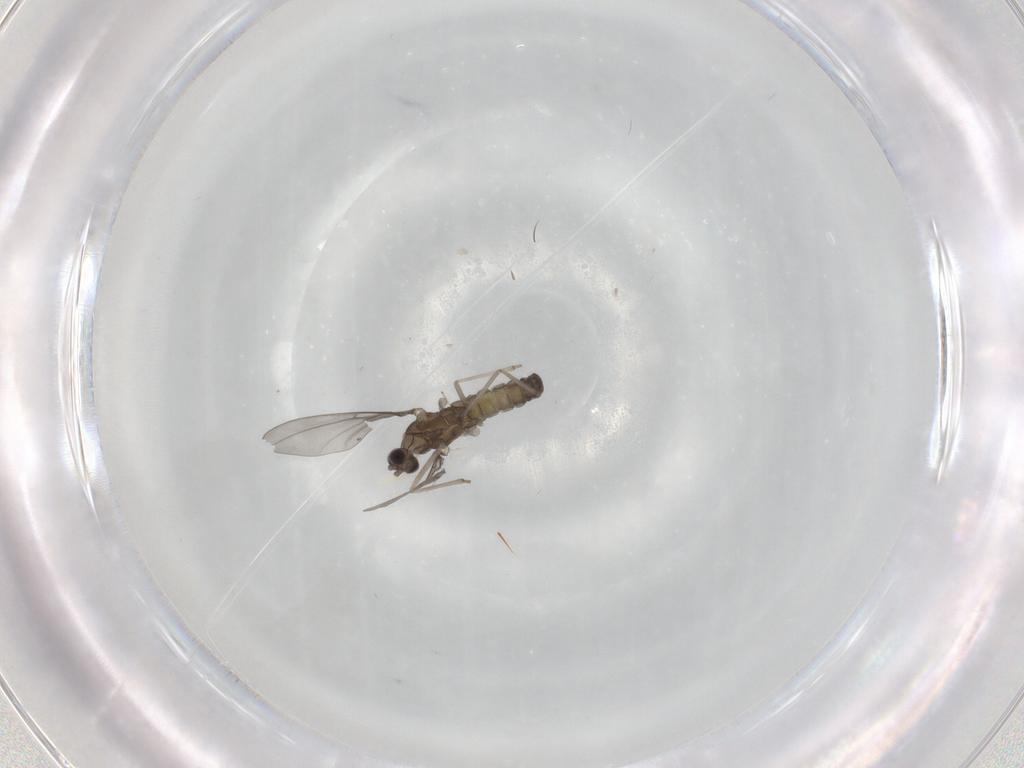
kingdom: Animalia
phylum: Arthropoda
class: Insecta
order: Diptera
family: Cecidomyiidae
